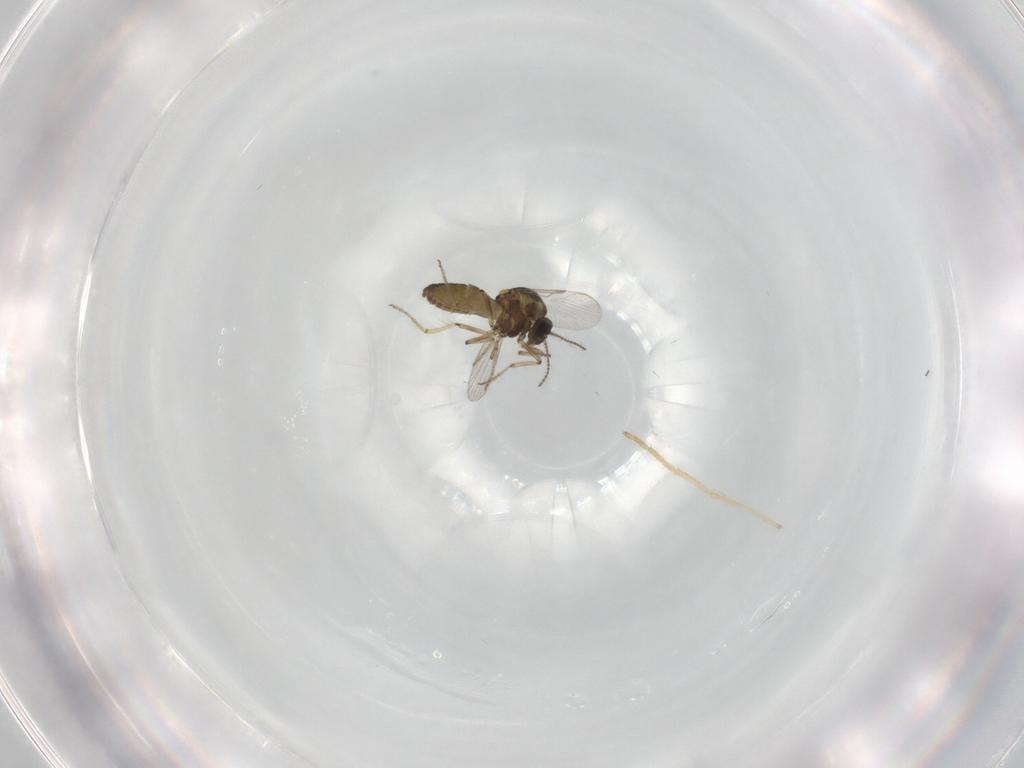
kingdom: Animalia
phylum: Arthropoda
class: Insecta
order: Diptera
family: Ceratopogonidae
